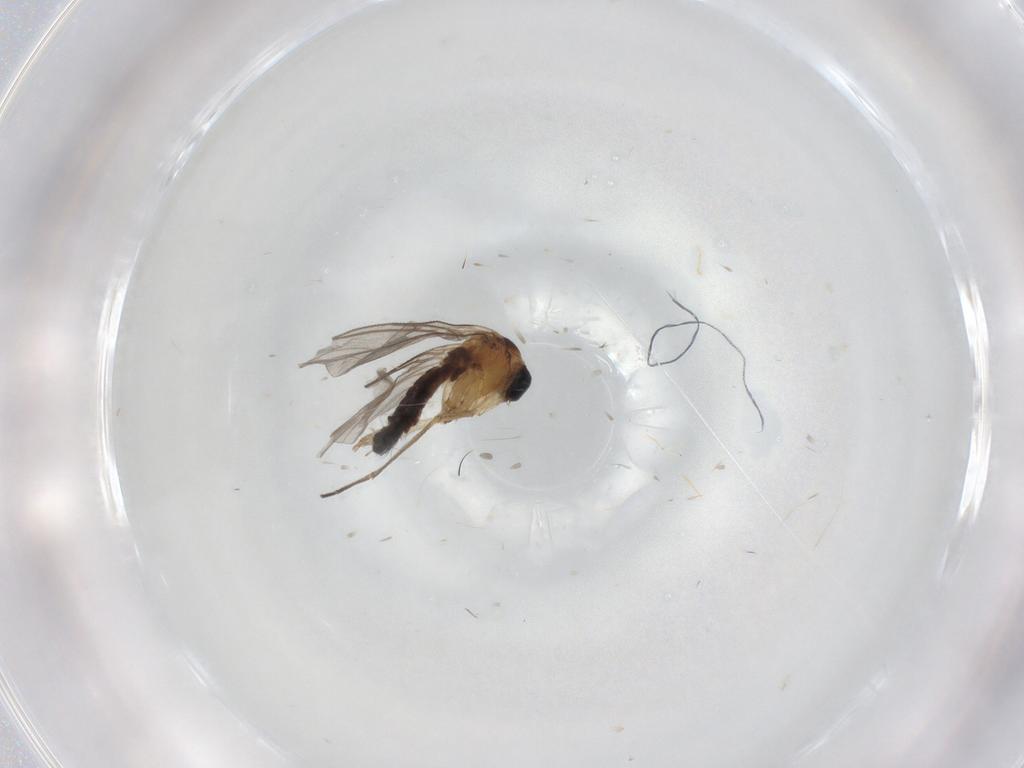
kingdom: Animalia
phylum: Arthropoda
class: Insecta
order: Diptera
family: Sciaridae
